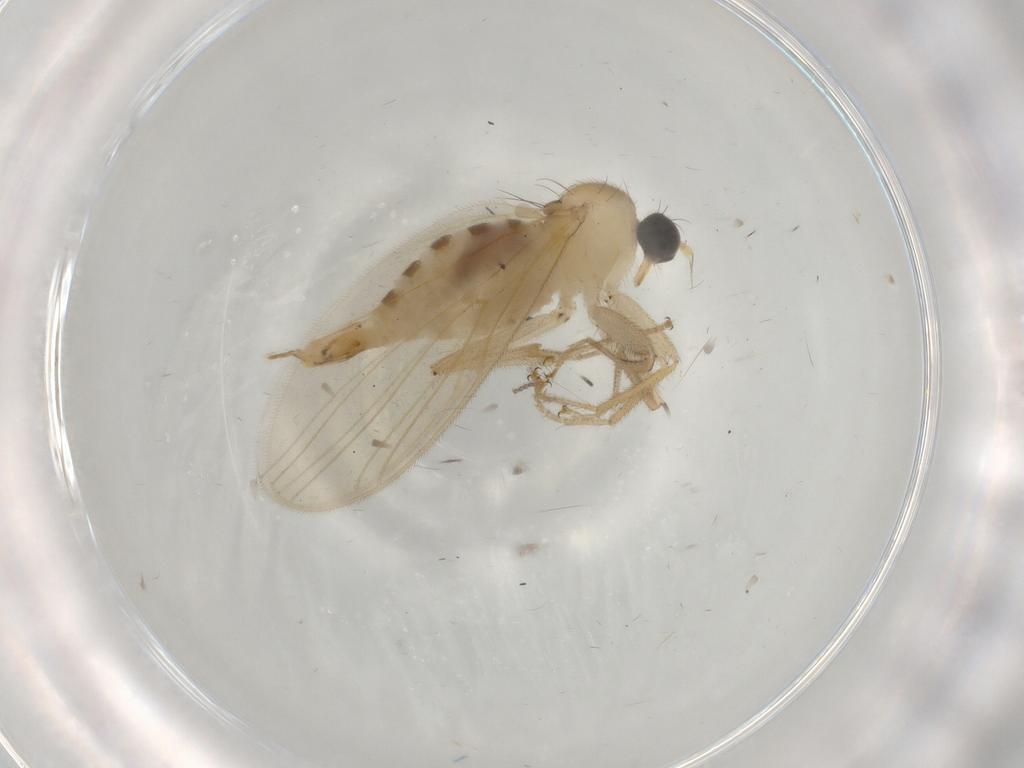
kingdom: Animalia
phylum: Arthropoda
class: Insecta
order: Diptera
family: Hybotidae
